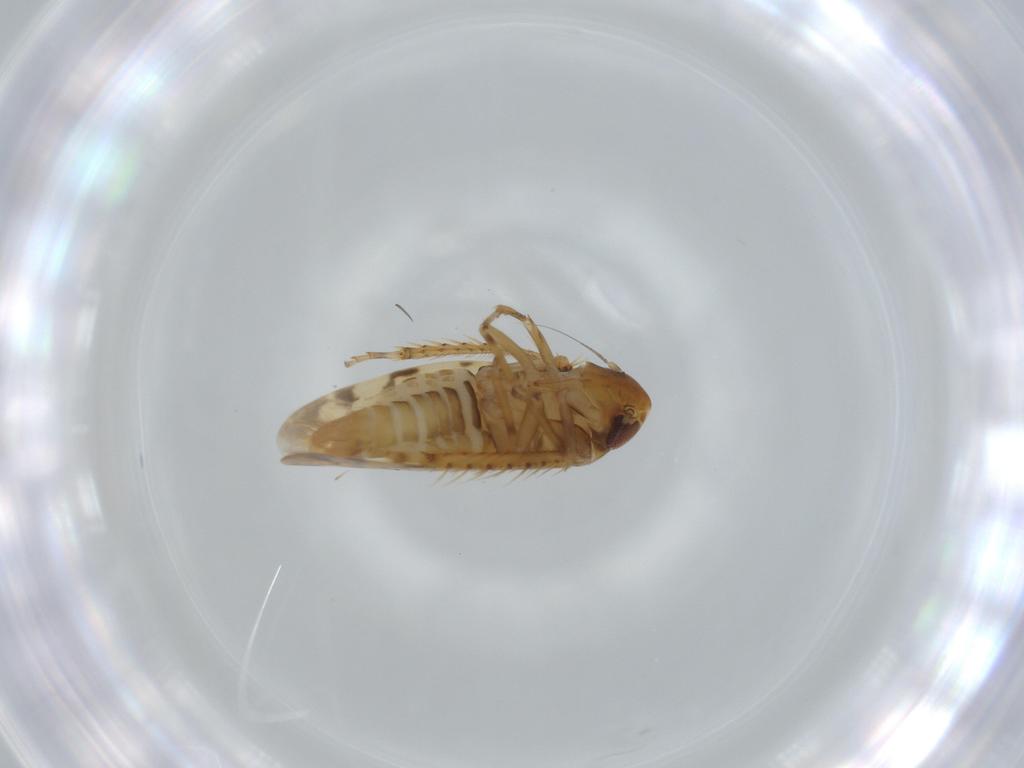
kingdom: Animalia
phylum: Arthropoda
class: Insecta
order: Hemiptera
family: Cicadellidae
